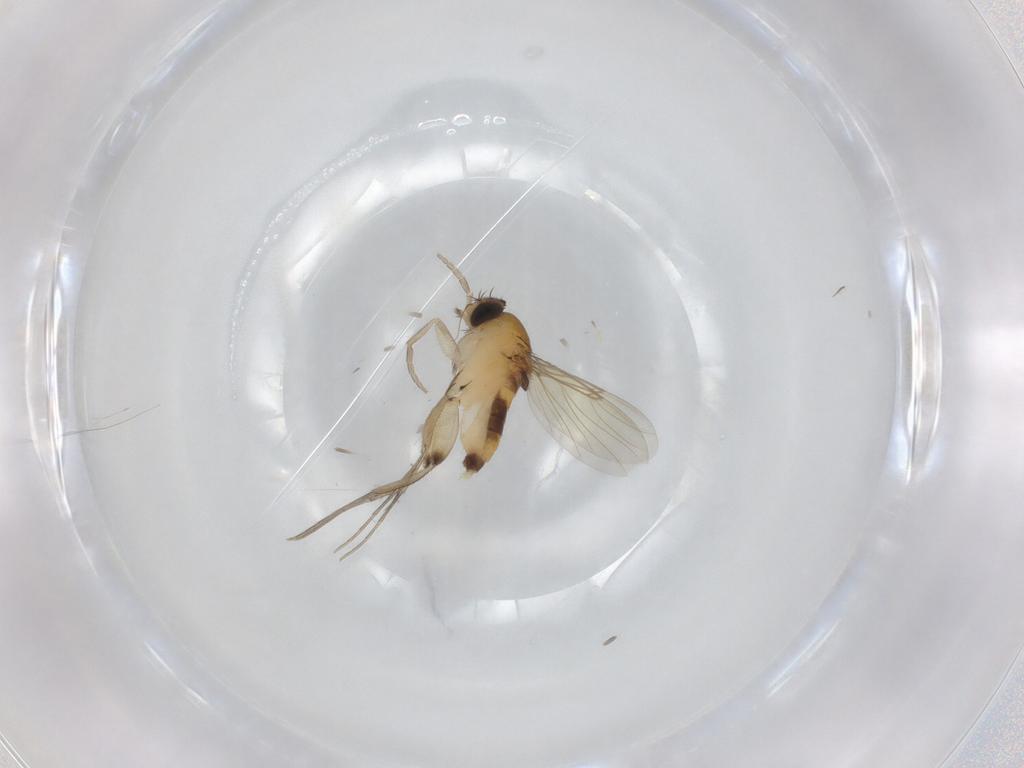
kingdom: Animalia
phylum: Arthropoda
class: Insecta
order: Diptera
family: Phoridae
